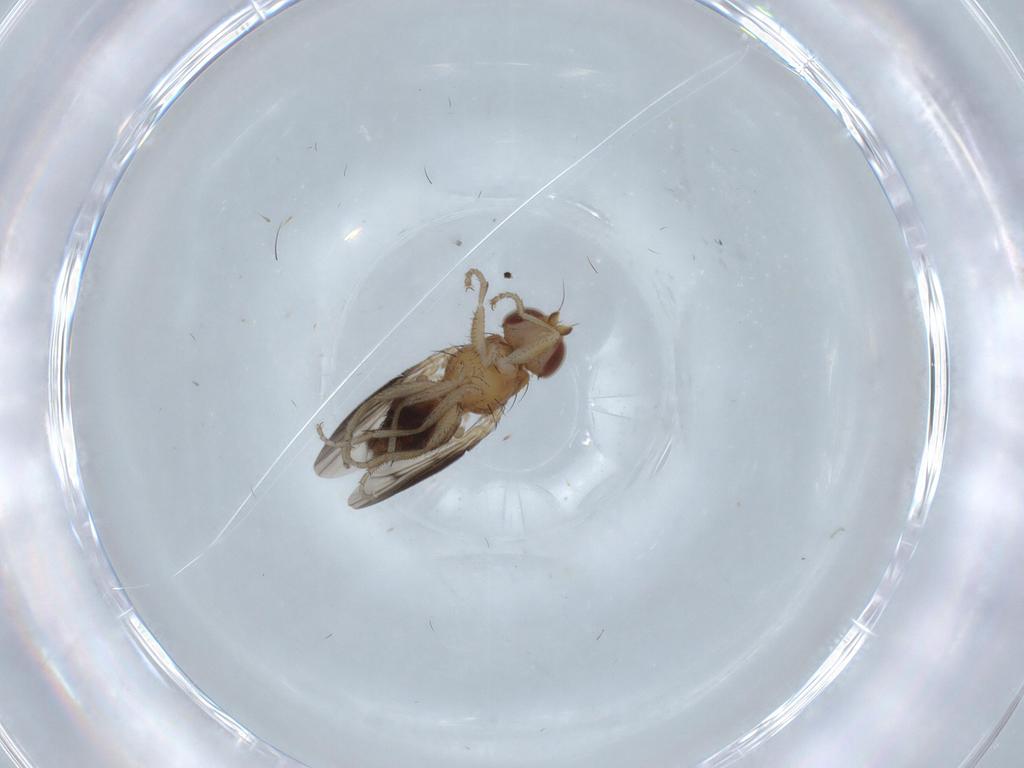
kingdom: Animalia
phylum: Arthropoda
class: Insecta
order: Diptera
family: Heleomyzidae
